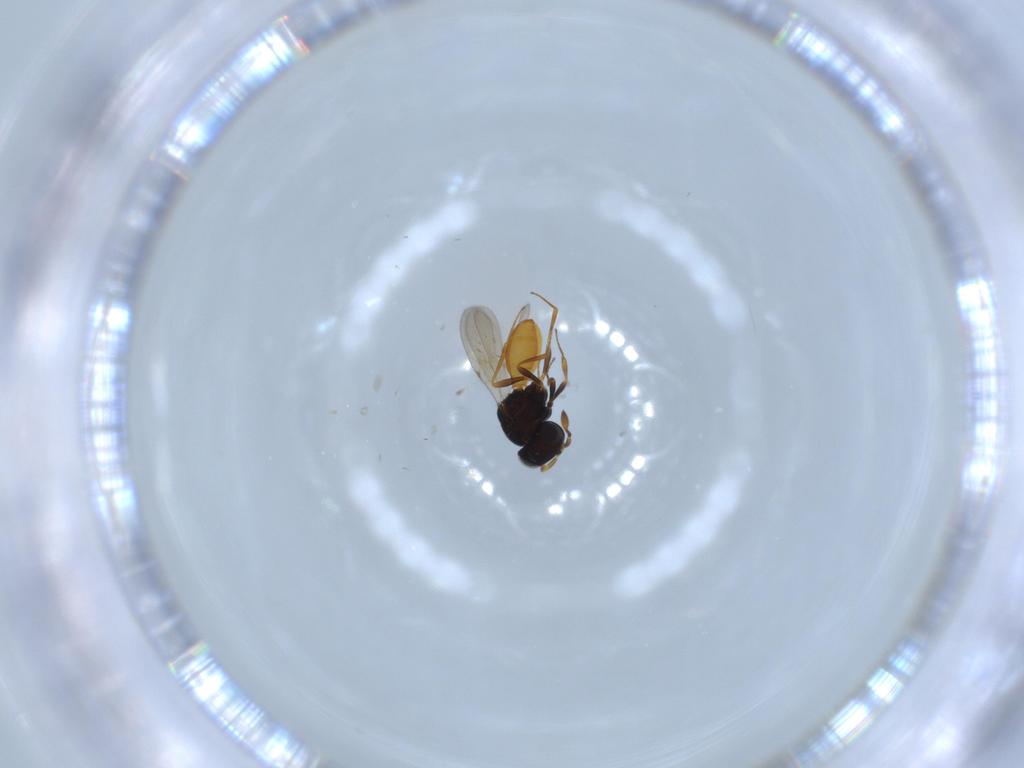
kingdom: Animalia
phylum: Arthropoda
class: Insecta
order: Hymenoptera
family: Scelionidae
